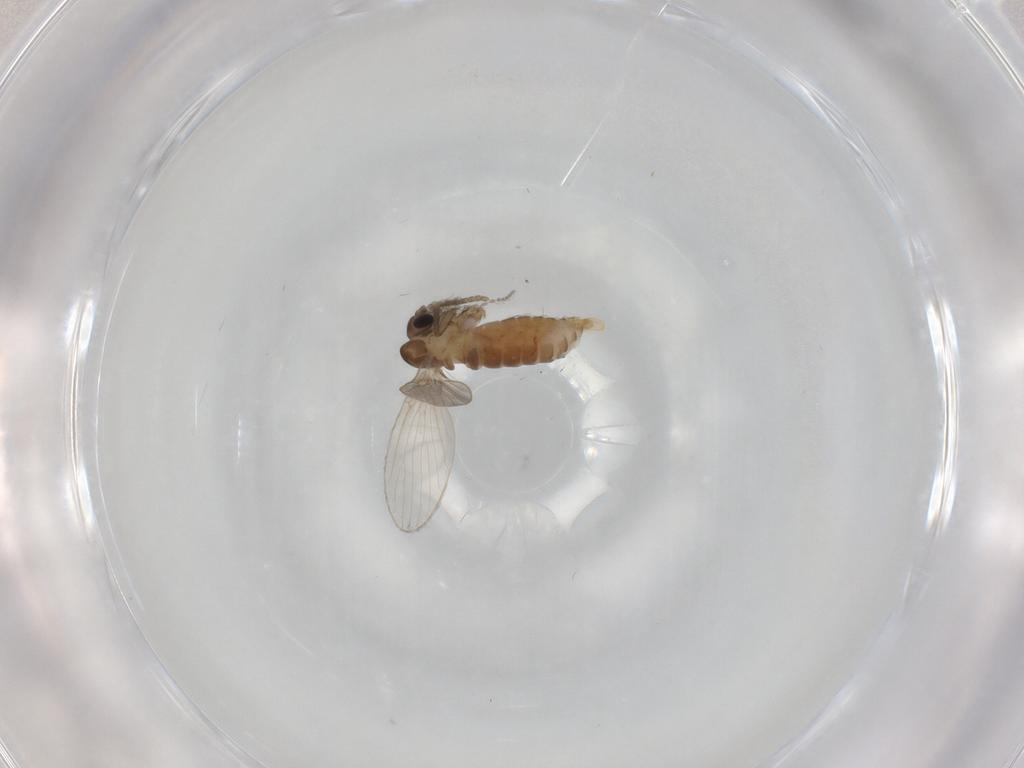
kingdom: Animalia
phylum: Arthropoda
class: Insecta
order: Diptera
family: Psychodidae
